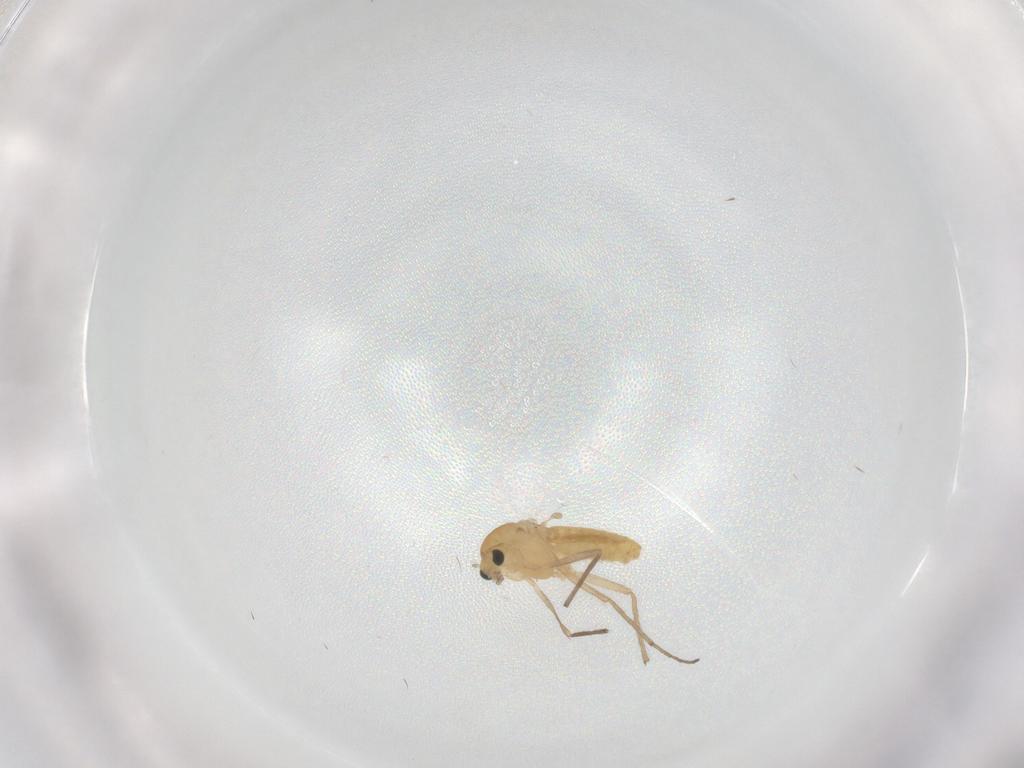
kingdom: Animalia
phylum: Arthropoda
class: Insecta
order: Diptera
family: Chironomidae
